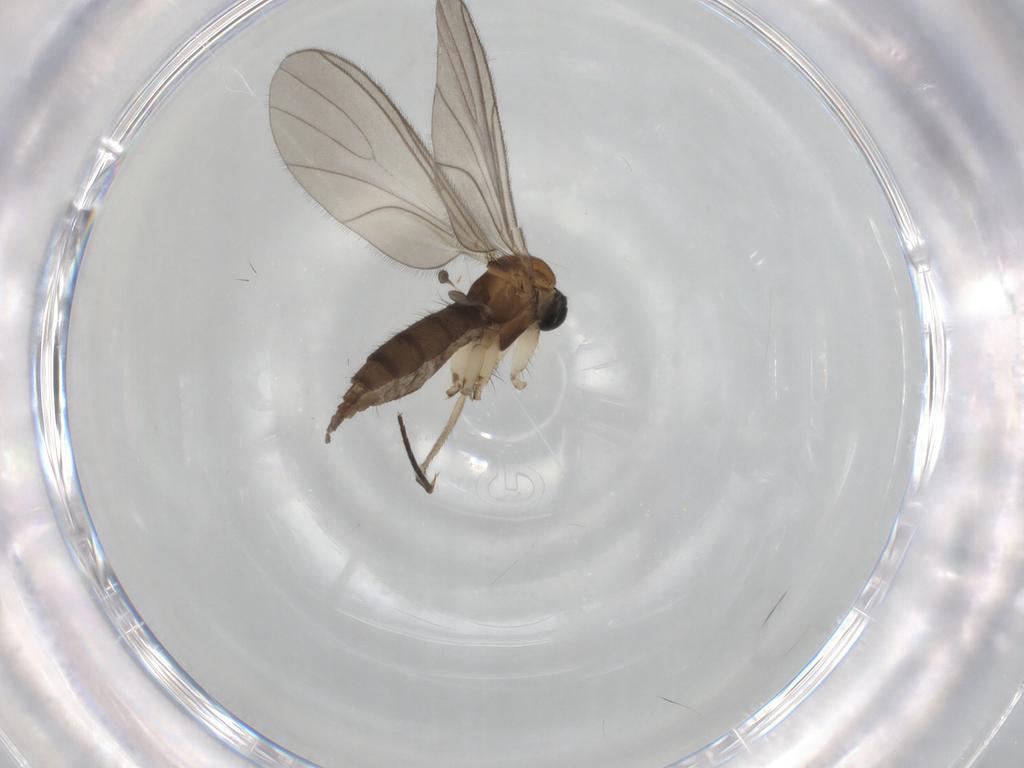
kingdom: Animalia
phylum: Arthropoda
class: Insecta
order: Diptera
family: Sciaridae
